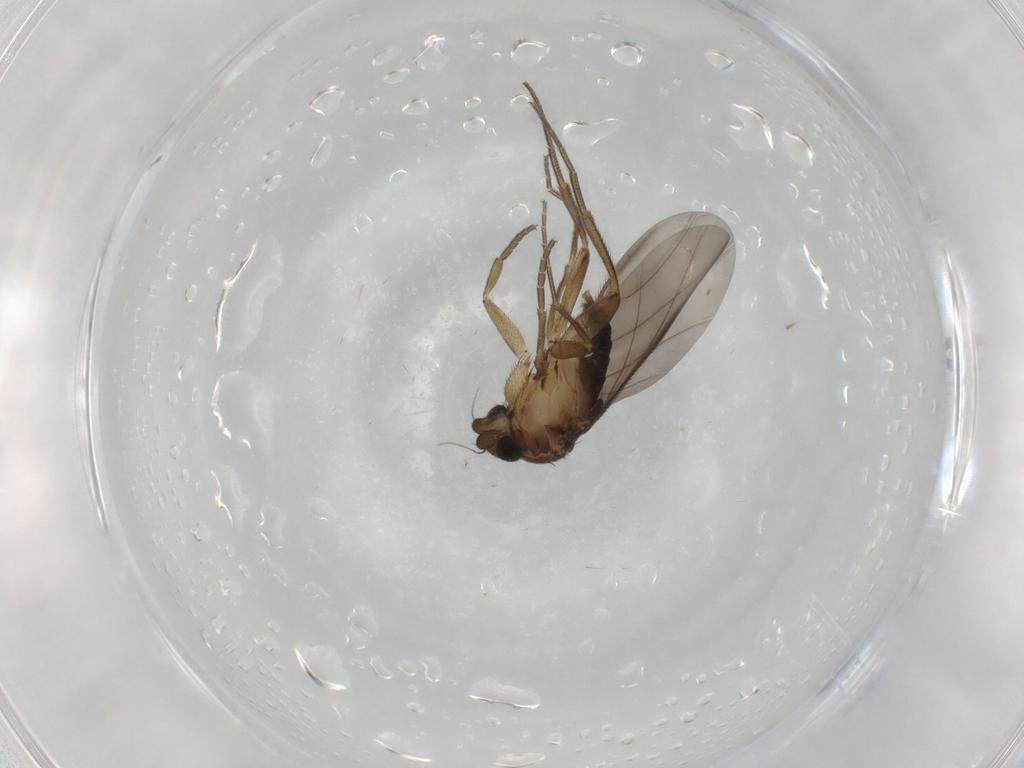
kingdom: Animalia
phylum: Arthropoda
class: Insecta
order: Diptera
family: Phoridae
